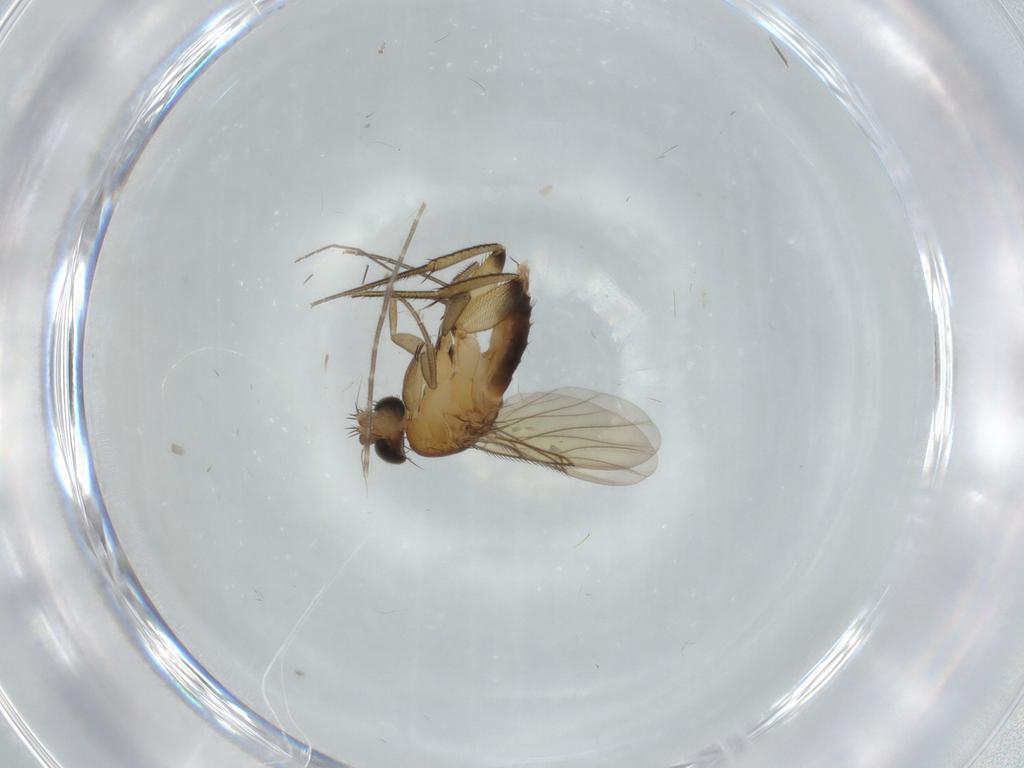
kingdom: Animalia
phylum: Arthropoda
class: Insecta
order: Diptera
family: Phoridae
